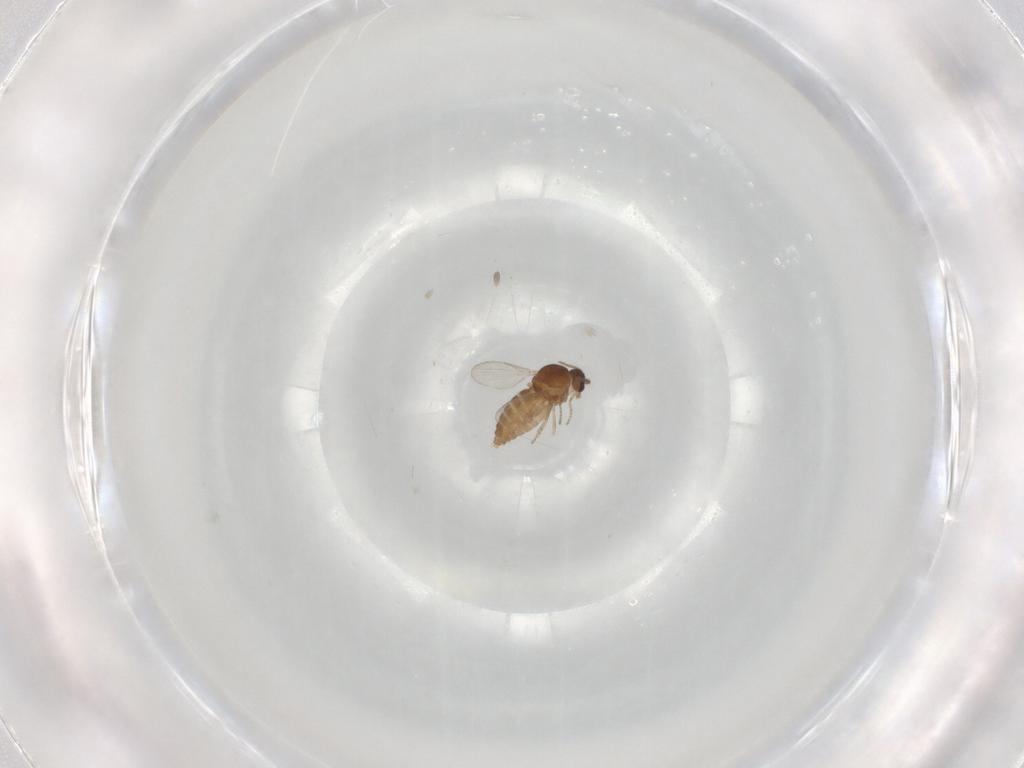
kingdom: Animalia
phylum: Arthropoda
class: Insecta
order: Diptera
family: Ceratopogonidae
